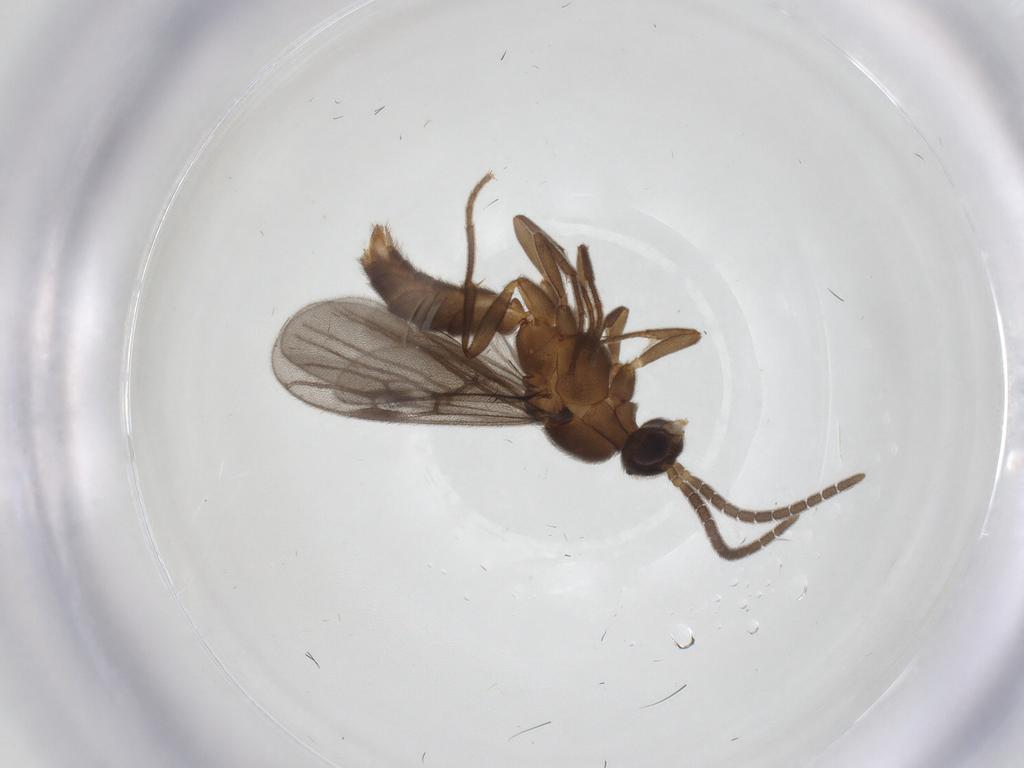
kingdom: Animalia
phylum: Arthropoda
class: Insecta
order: Hymenoptera
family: Formicidae
